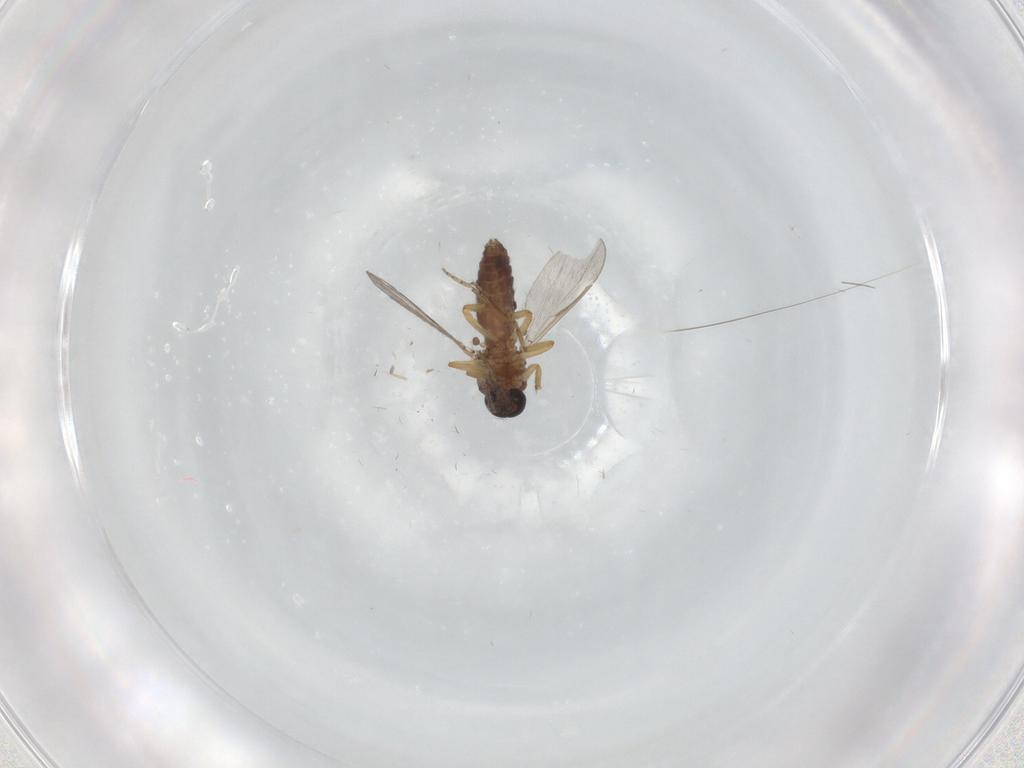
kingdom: Animalia
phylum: Arthropoda
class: Insecta
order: Diptera
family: Ceratopogonidae
